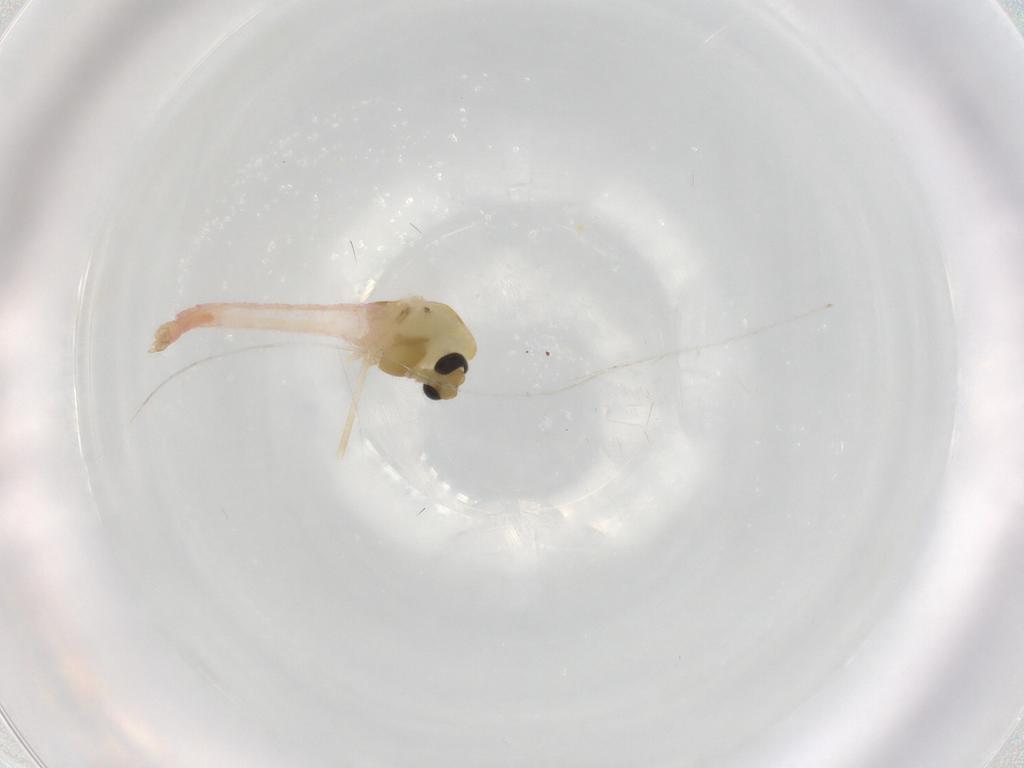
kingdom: Animalia
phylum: Arthropoda
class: Insecta
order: Diptera
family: Chironomidae
